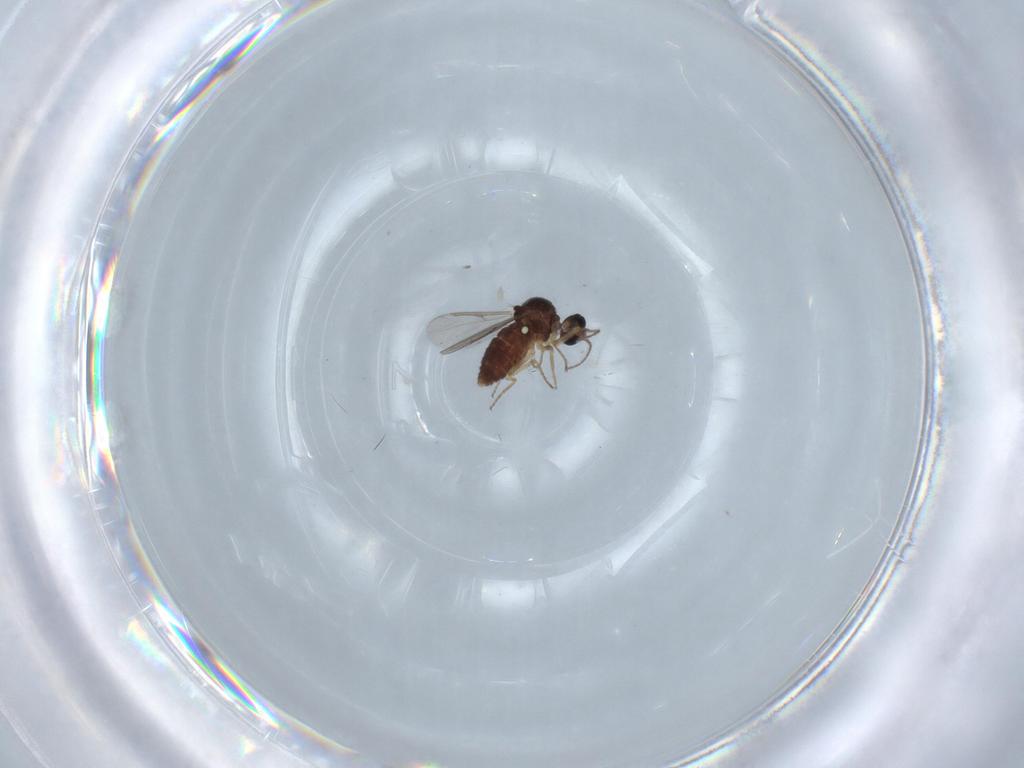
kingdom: Animalia
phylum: Arthropoda
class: Insecta
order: Diptera
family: Ceratopogonidae
